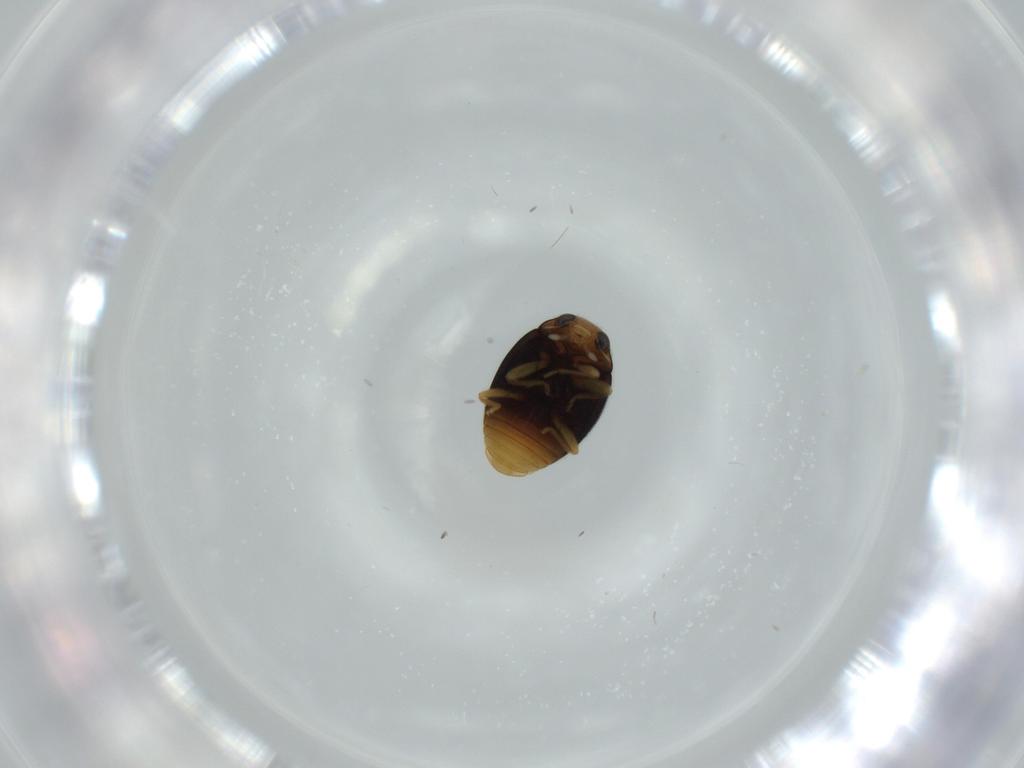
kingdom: Animalia
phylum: Arthropoda
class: Insecta
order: Coleoptera
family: Coccinellidae
